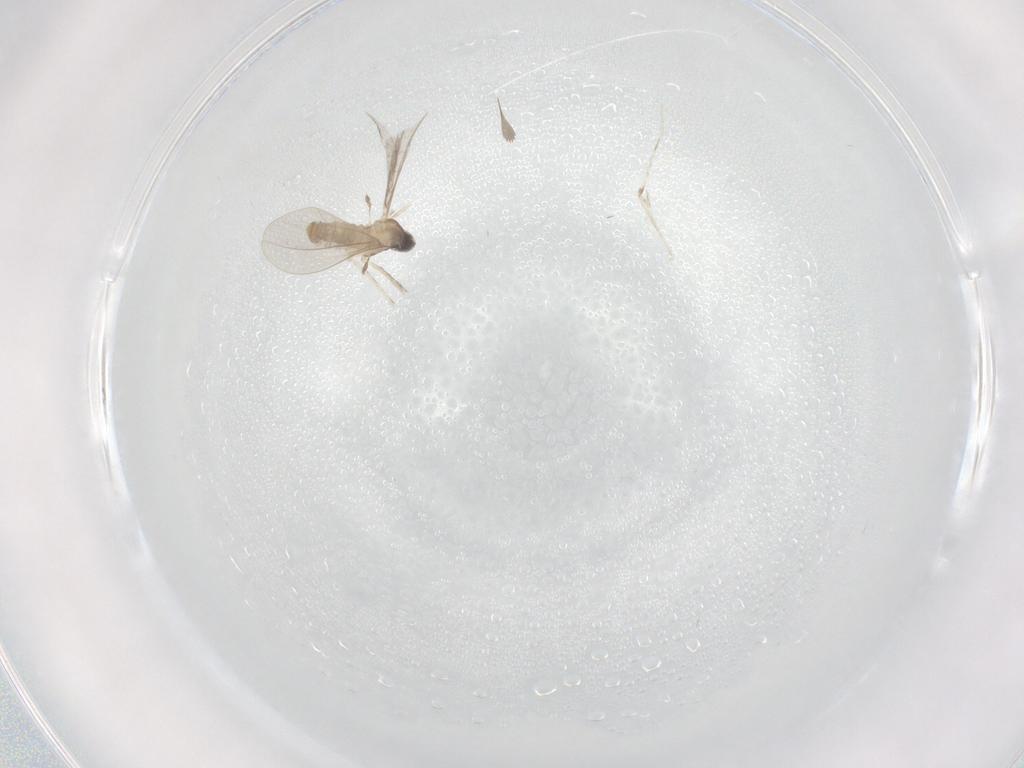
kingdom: Animalia
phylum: Arthropoda
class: Insecta
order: Diptera
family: Cecidomyiidae
